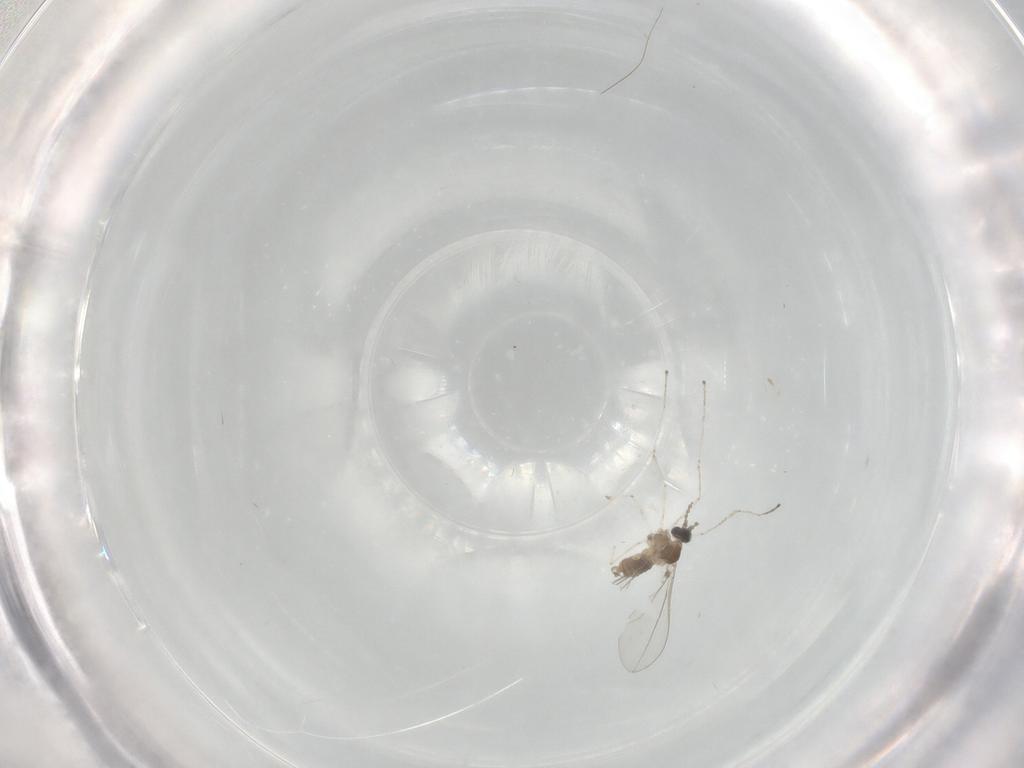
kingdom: Animalia
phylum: Arthropoda
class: Insecta
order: Diptera
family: Cecidomyiidae
